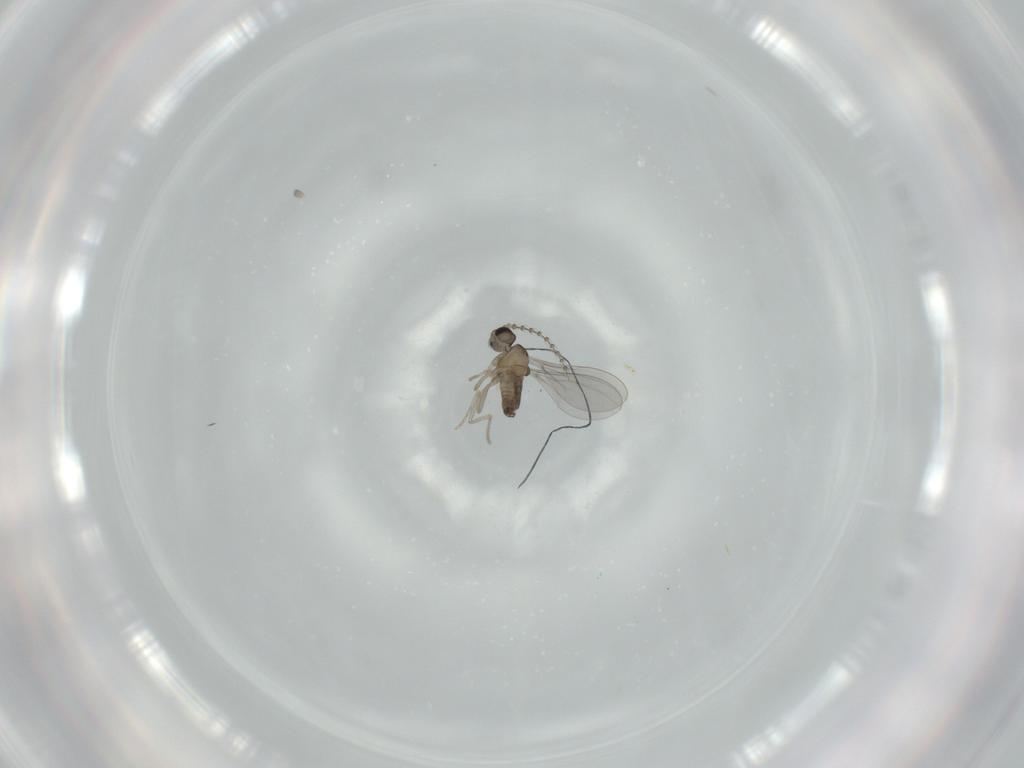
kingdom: Animalia
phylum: Arthropoda
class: Insecta
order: Diptera
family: Cecidomyiidae
